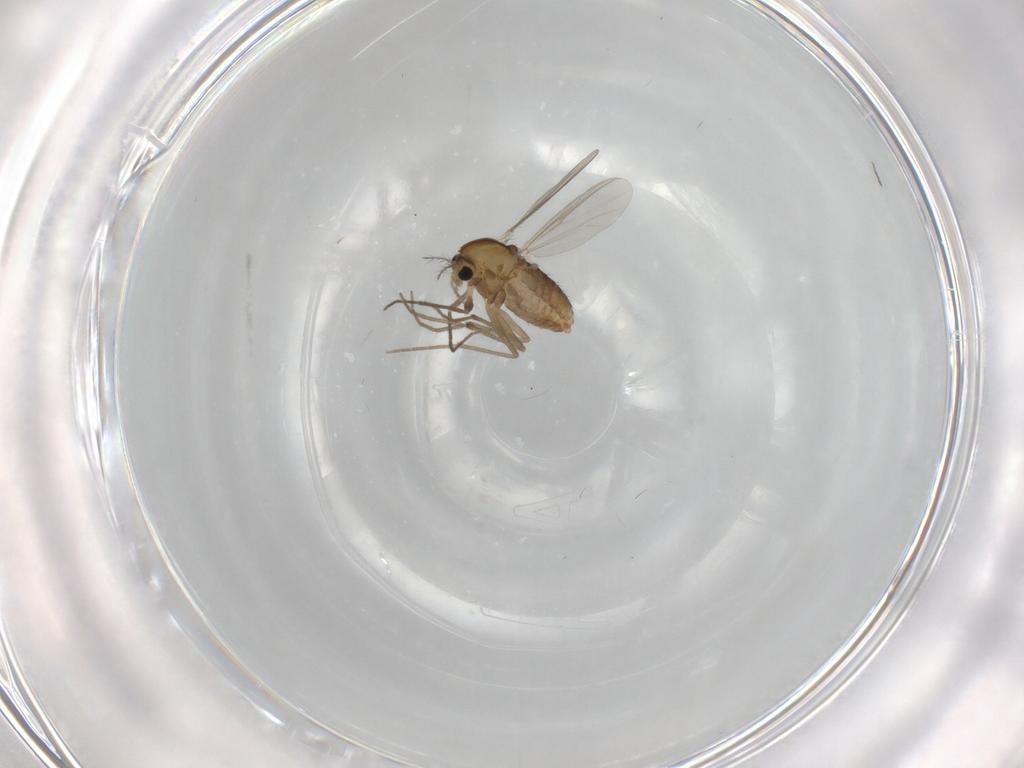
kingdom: Animalia
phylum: Arthropoda
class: Insecta
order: Diptera
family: Chironomidae
